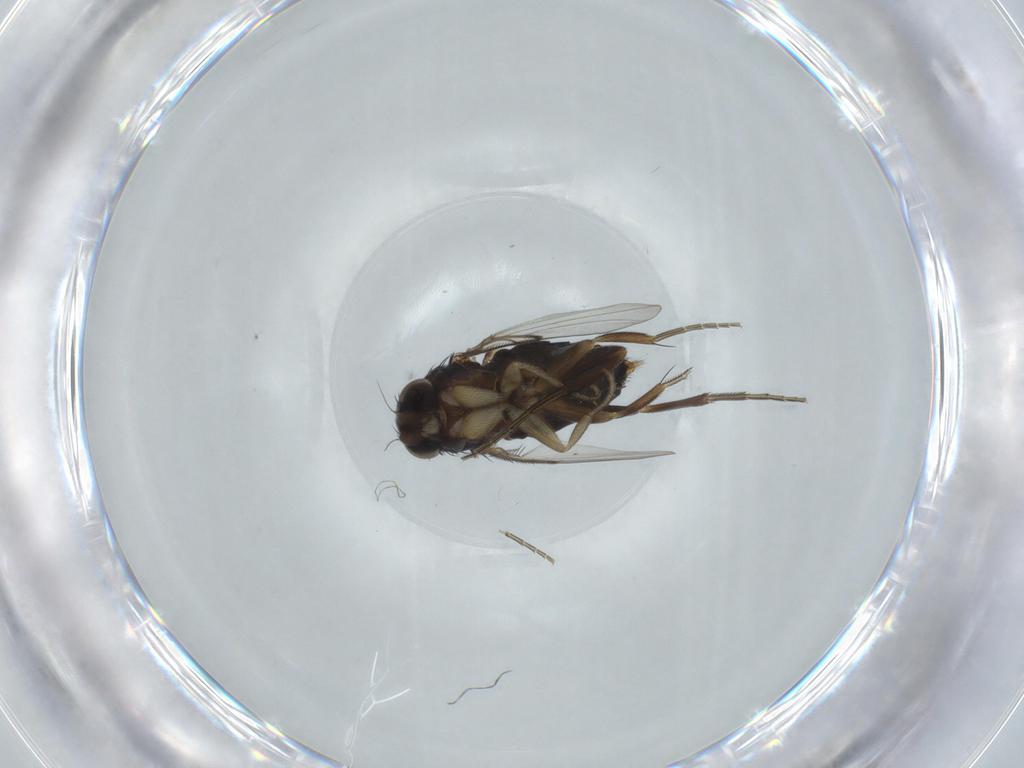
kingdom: Animalia
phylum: Arthropoda
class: Insecta
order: Diptera
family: Phoridae
